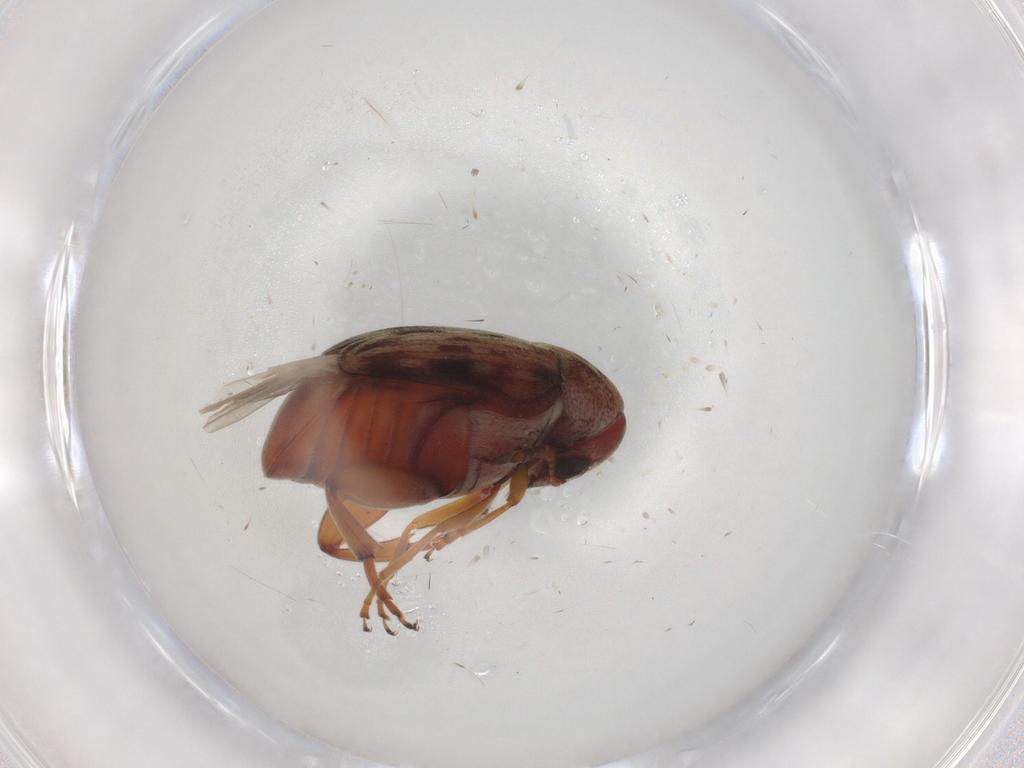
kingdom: Animalia
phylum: Arthropoda
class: Insecta
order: Coleoptera
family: Chrysomelidae
